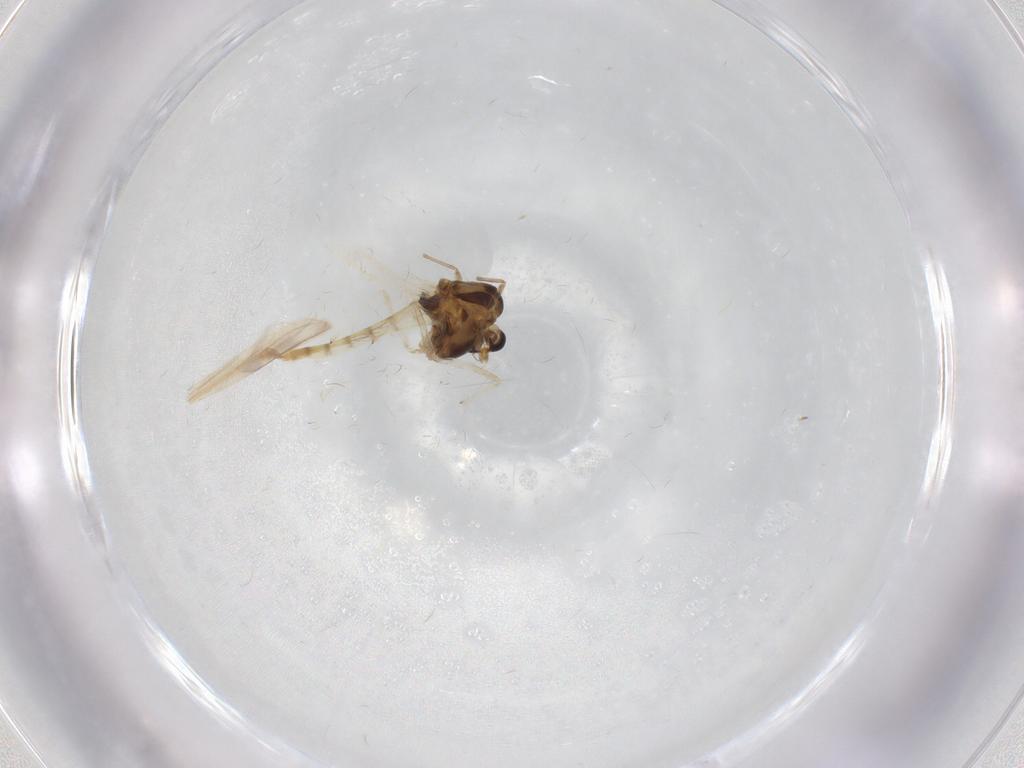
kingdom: Animalia
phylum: Arthropoda
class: Insecta
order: Diptera
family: Chironomidae
